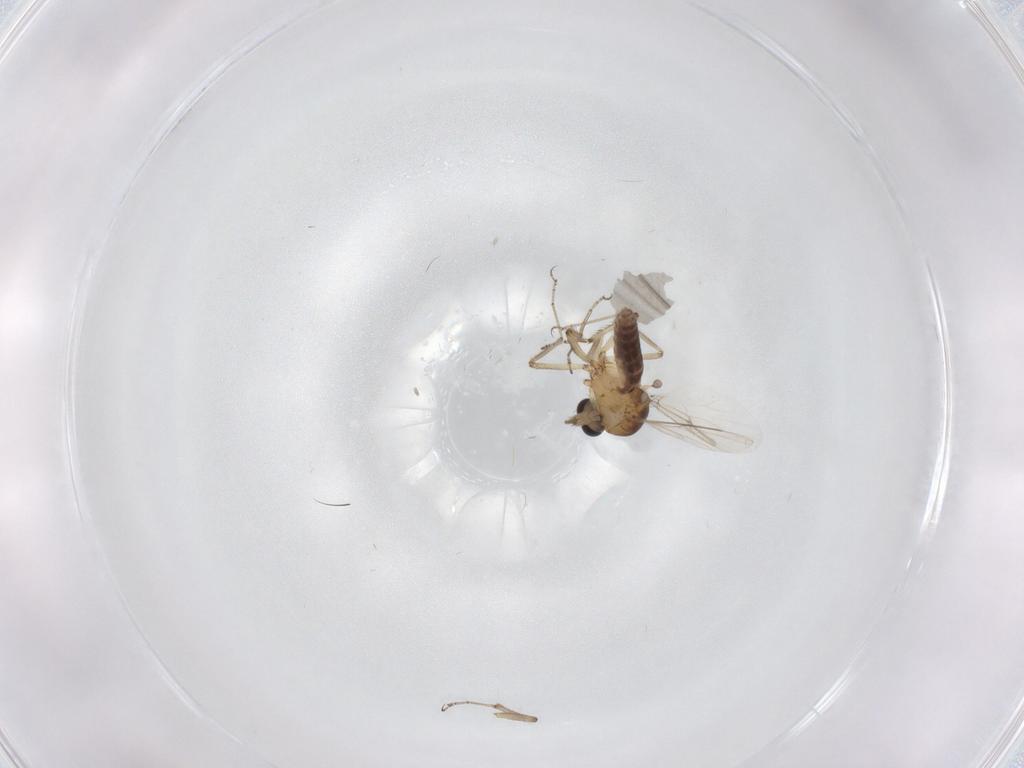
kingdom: Animalia
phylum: Arthropoda
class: Insecta
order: Diptera
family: Ceratopogonidae
